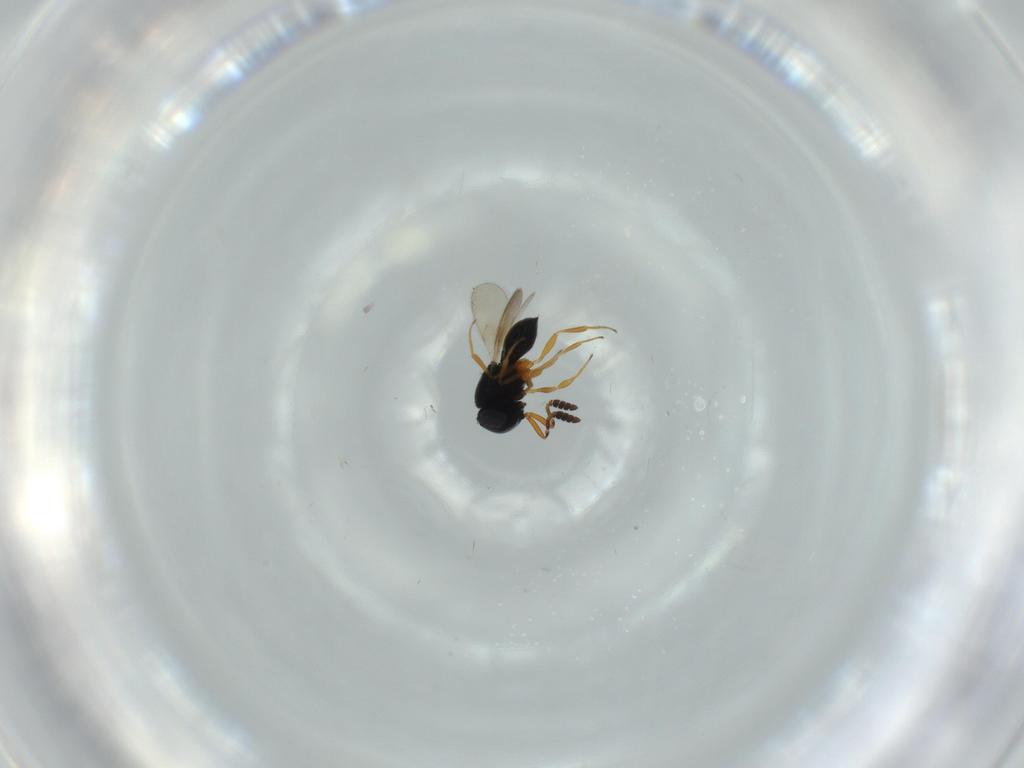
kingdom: Animalia
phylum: Arthropoda
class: Insecta
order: Hymenoptera
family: Scelionidae
